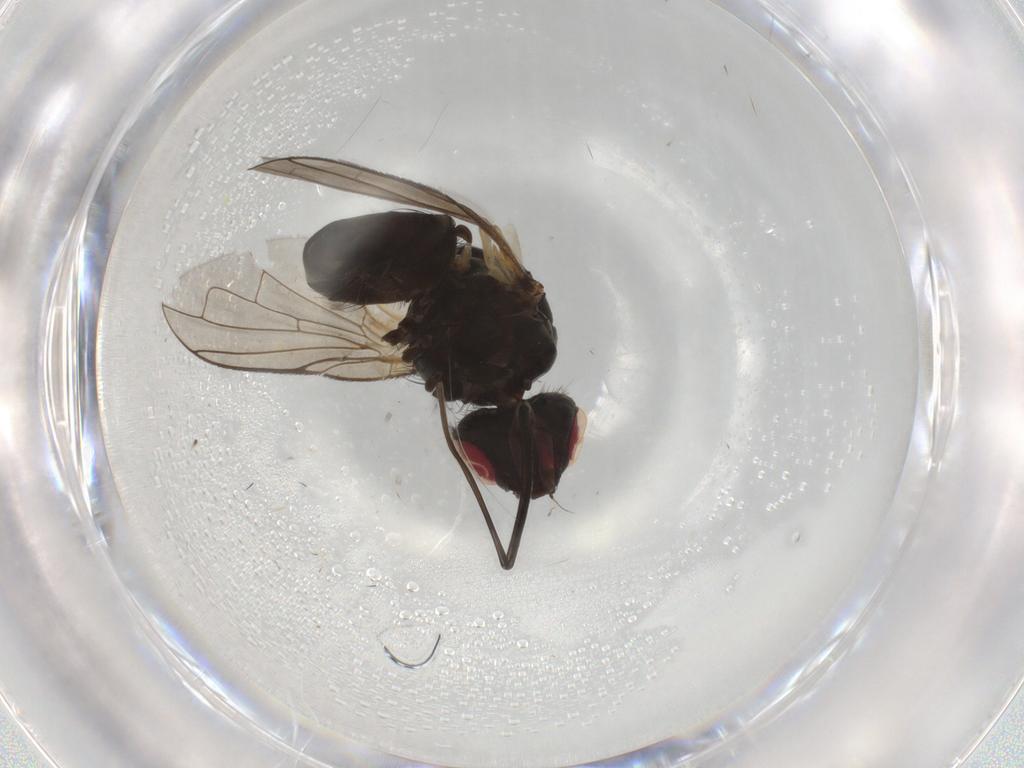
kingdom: Animalia
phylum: Arthropoda
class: Insecta
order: Diptera
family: Tachinidae
